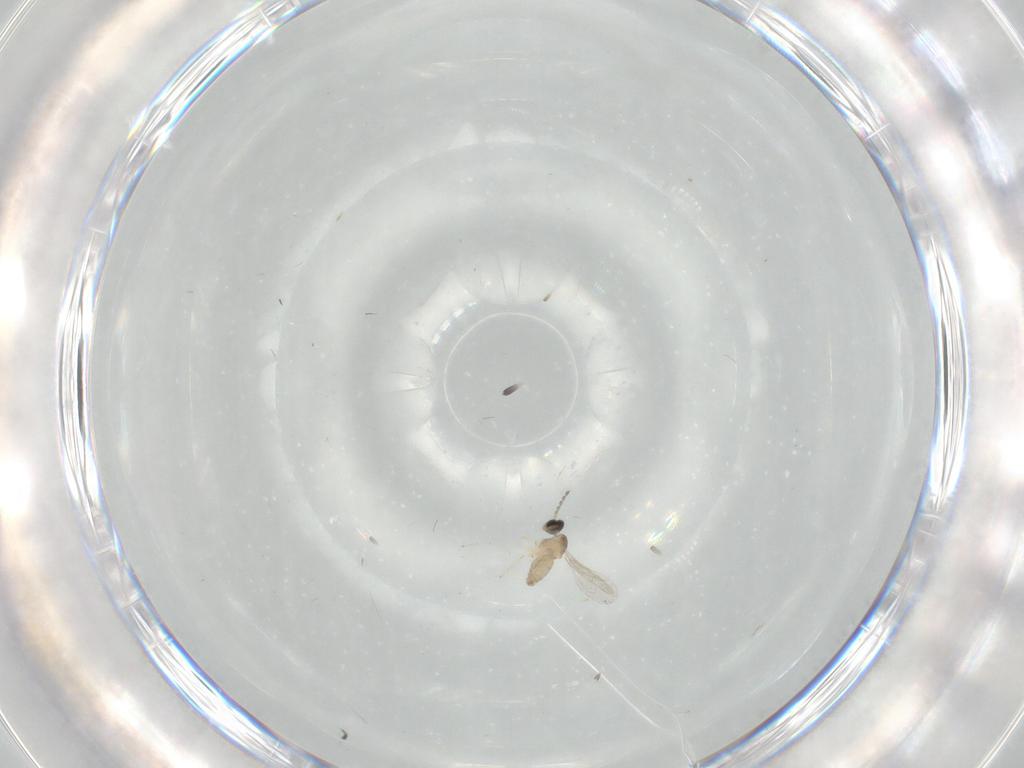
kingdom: Animalia
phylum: Arthropoda
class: Insecta
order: Diptera
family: Cecidomyiidae
